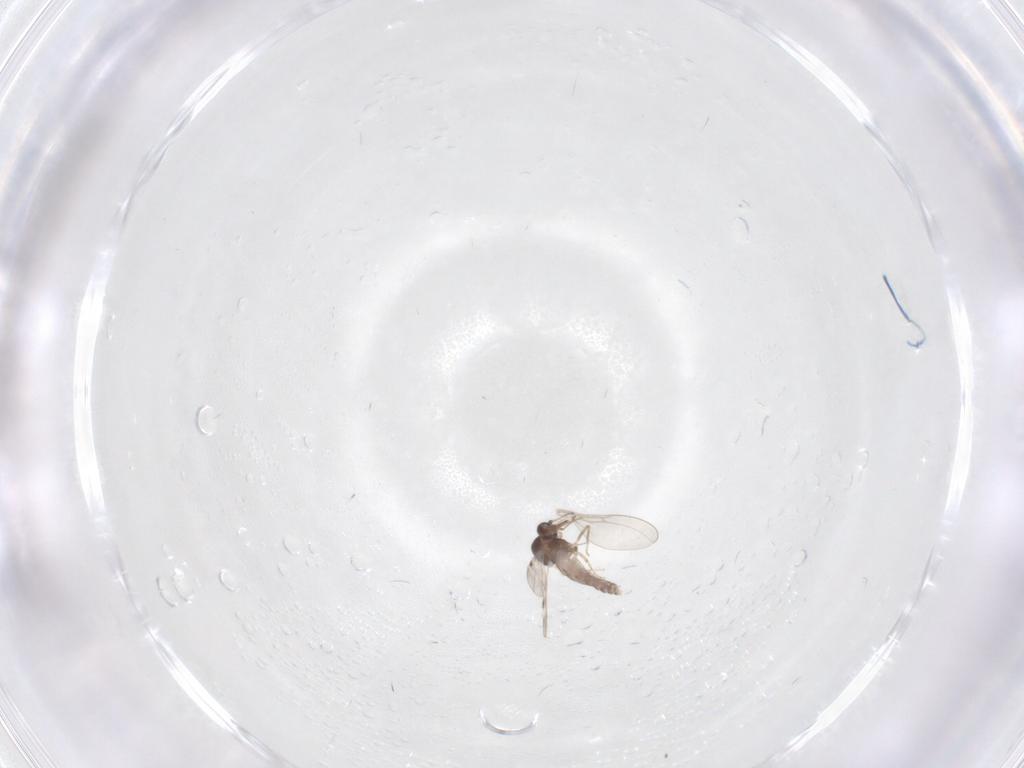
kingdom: Animalia
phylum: Arthropoda
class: Insecta
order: Diptera
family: Cecidomyiidae
